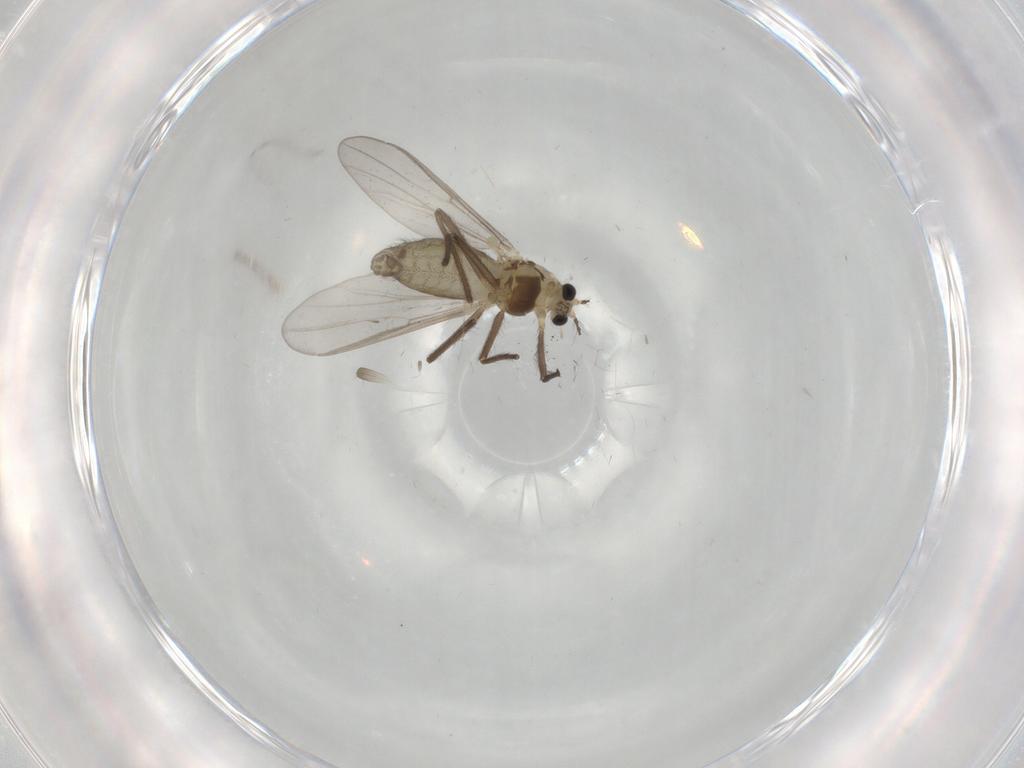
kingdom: Animalia
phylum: Arthropoda
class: Insecta
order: Diptera
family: Chironomidae
